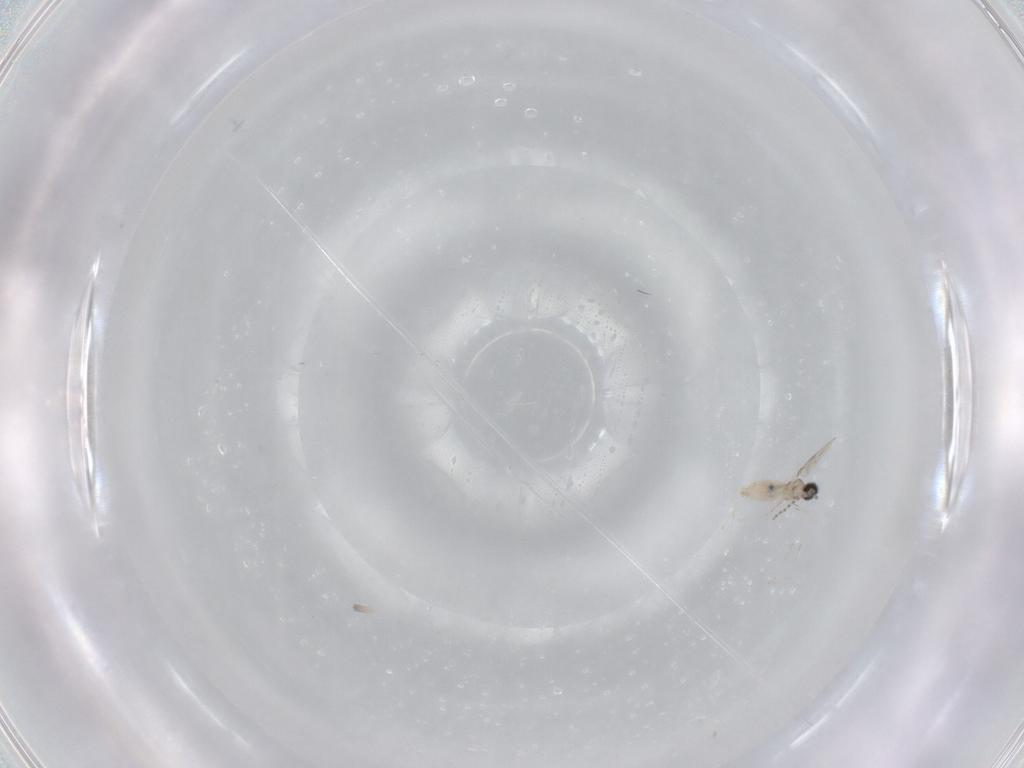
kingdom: Animalia
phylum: Arthropoda
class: Insecta
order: Diptera
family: Cecidomyiidae
